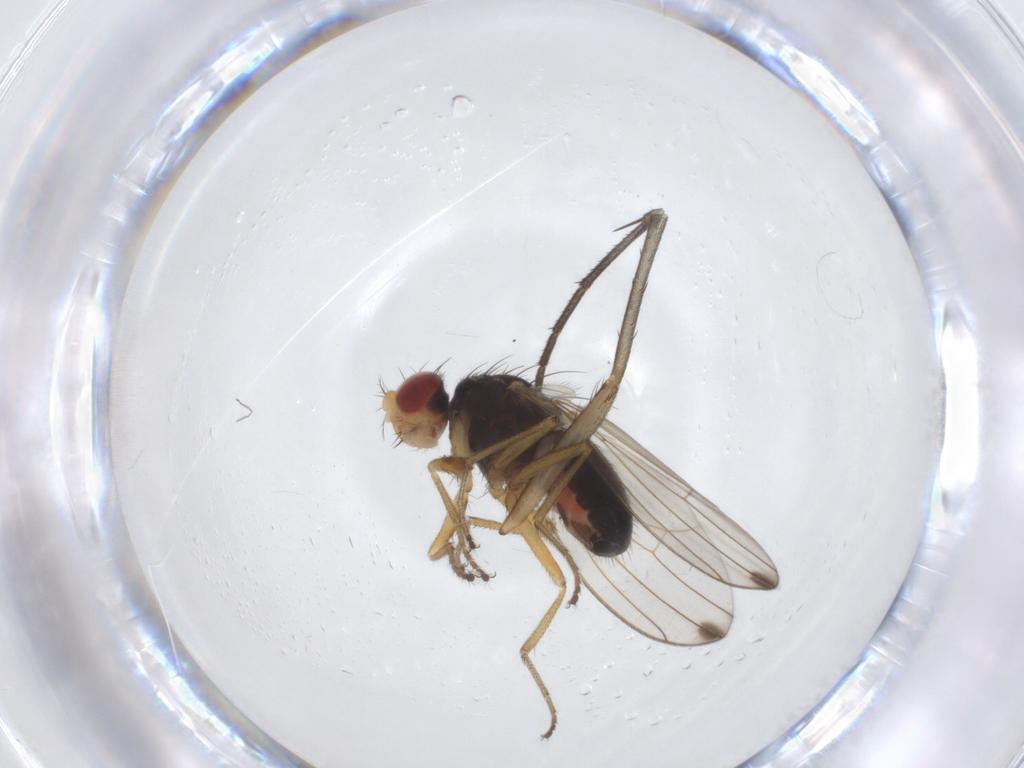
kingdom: Animalia
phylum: Arthropoda
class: Insecta
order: Diptera
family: Drosophilidae
